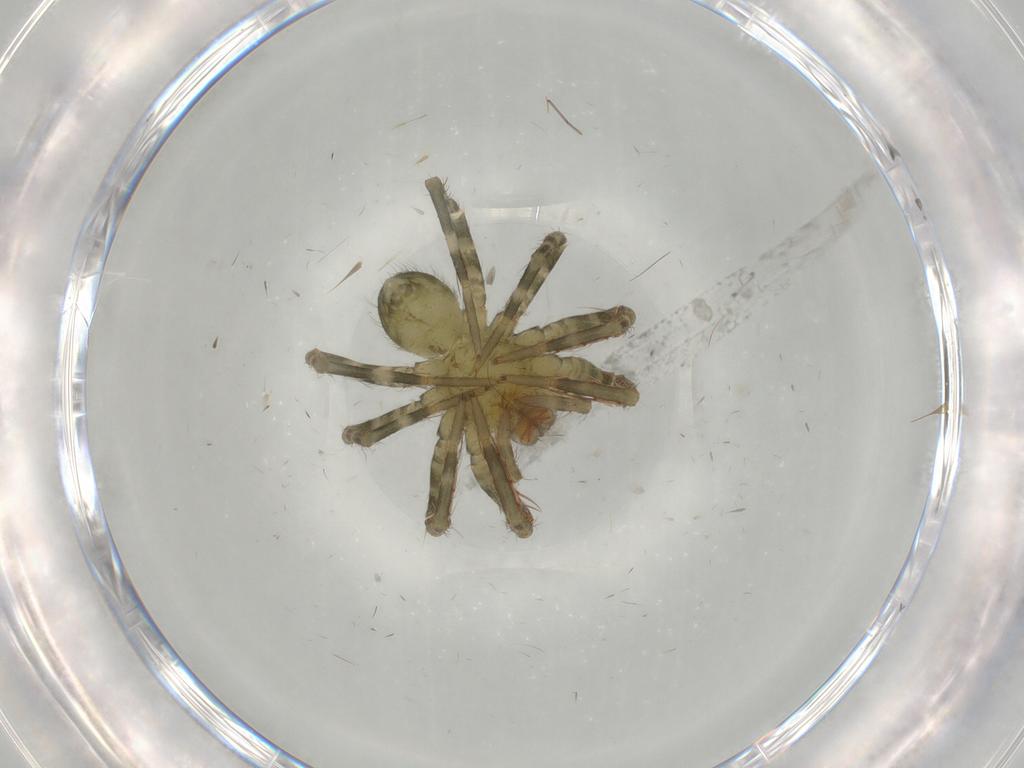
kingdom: Animalia
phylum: Arthropoda
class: Arachnida
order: Araneae
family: Ctenidae
